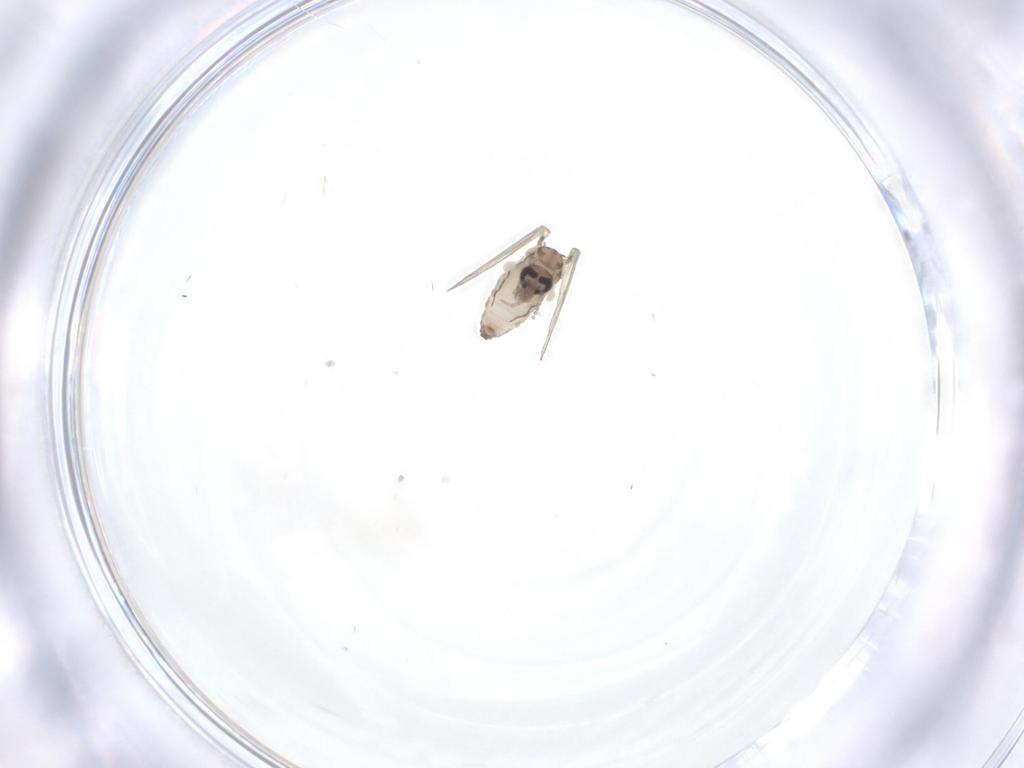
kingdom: Animalia
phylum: Arthropoda
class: Insecta
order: Diptera
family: Psychodidae
